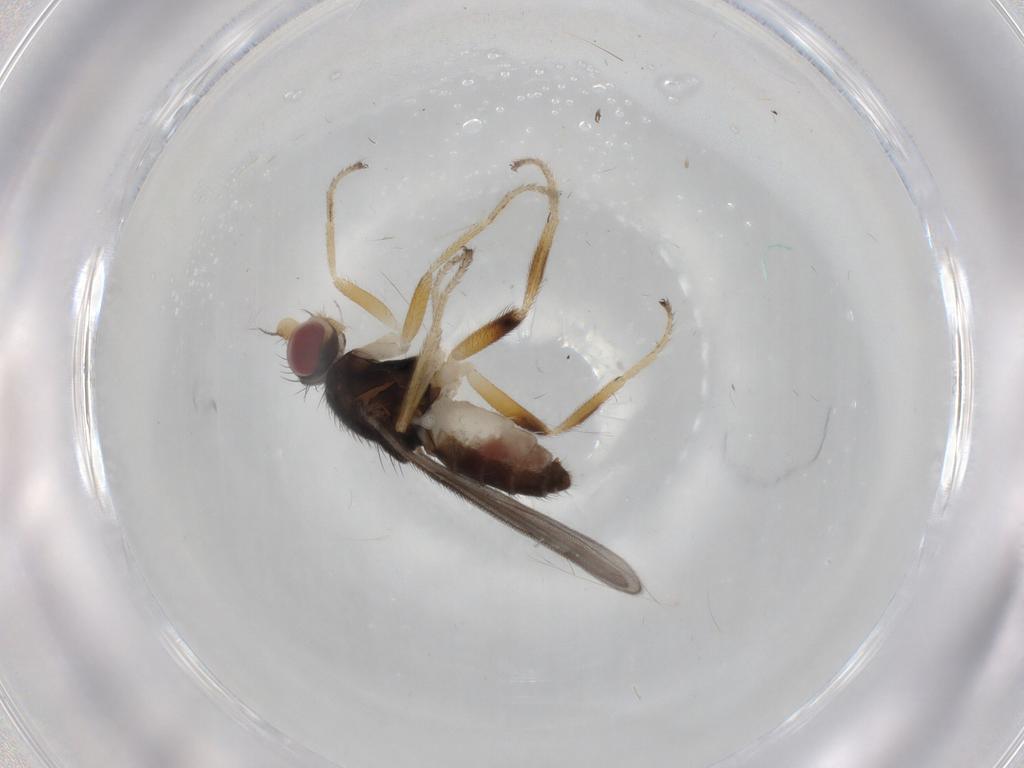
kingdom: Animalia
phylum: Arthropoda
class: Insecta
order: Diptera
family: Chloropidae
